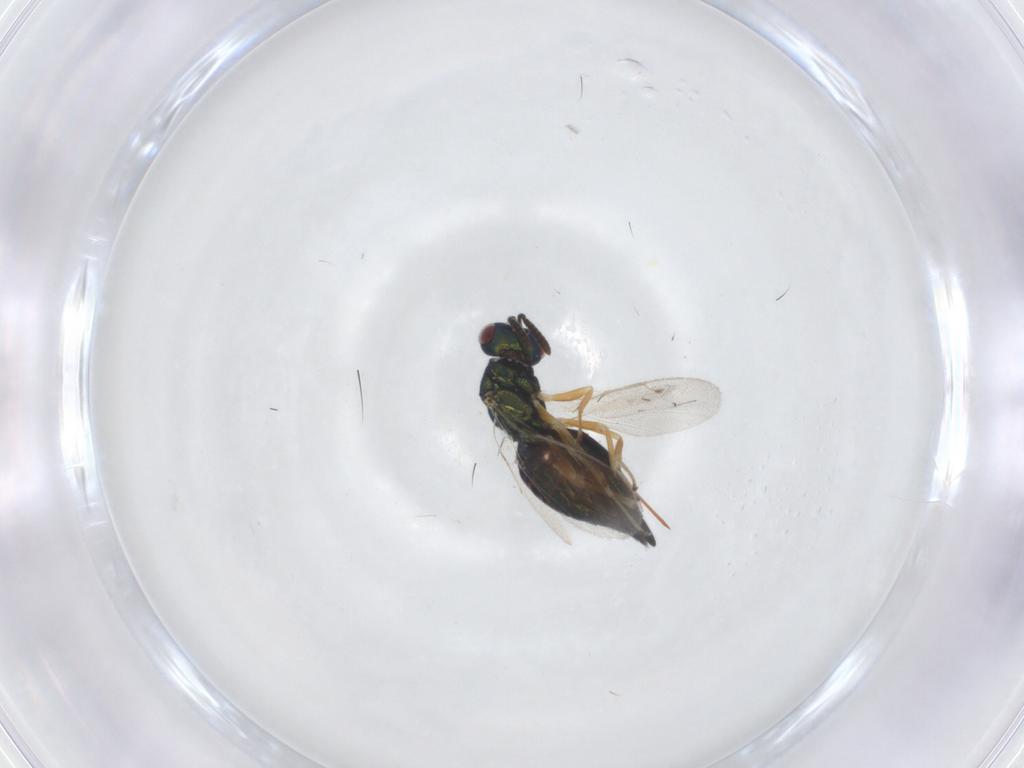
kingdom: Animalia
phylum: Arthropoda
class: Insecta
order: Hymenoptera
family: Pteromalidae
